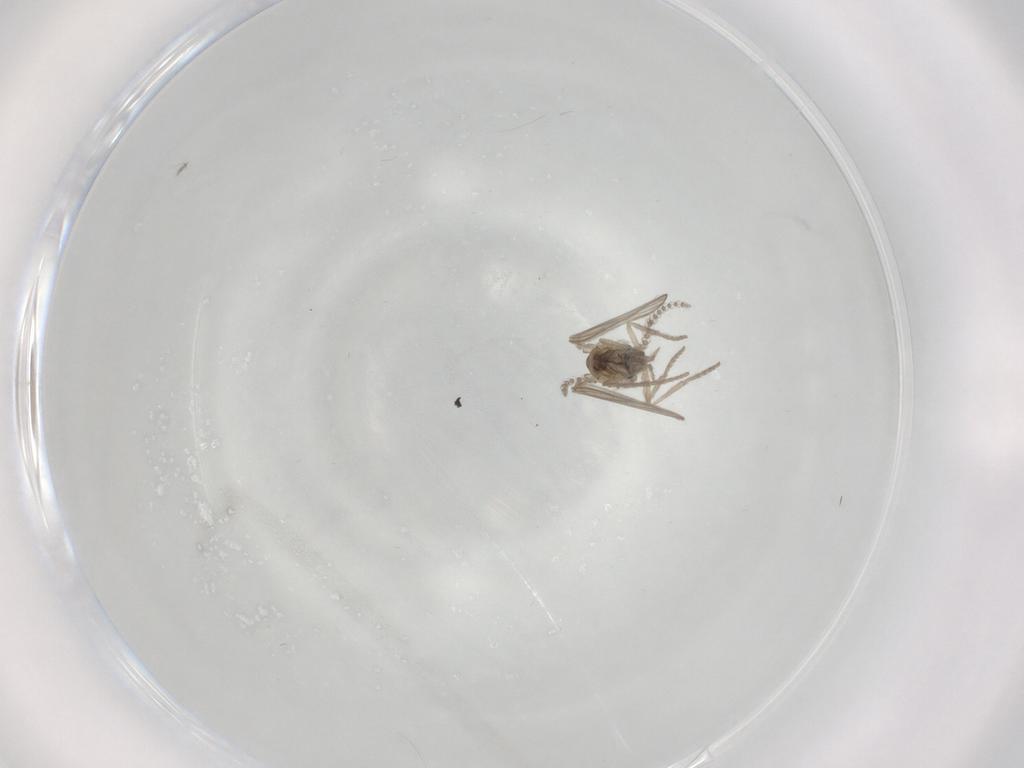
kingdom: Animalia
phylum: Arthropoda
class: Insecta
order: Diptera
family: Psychodidae
